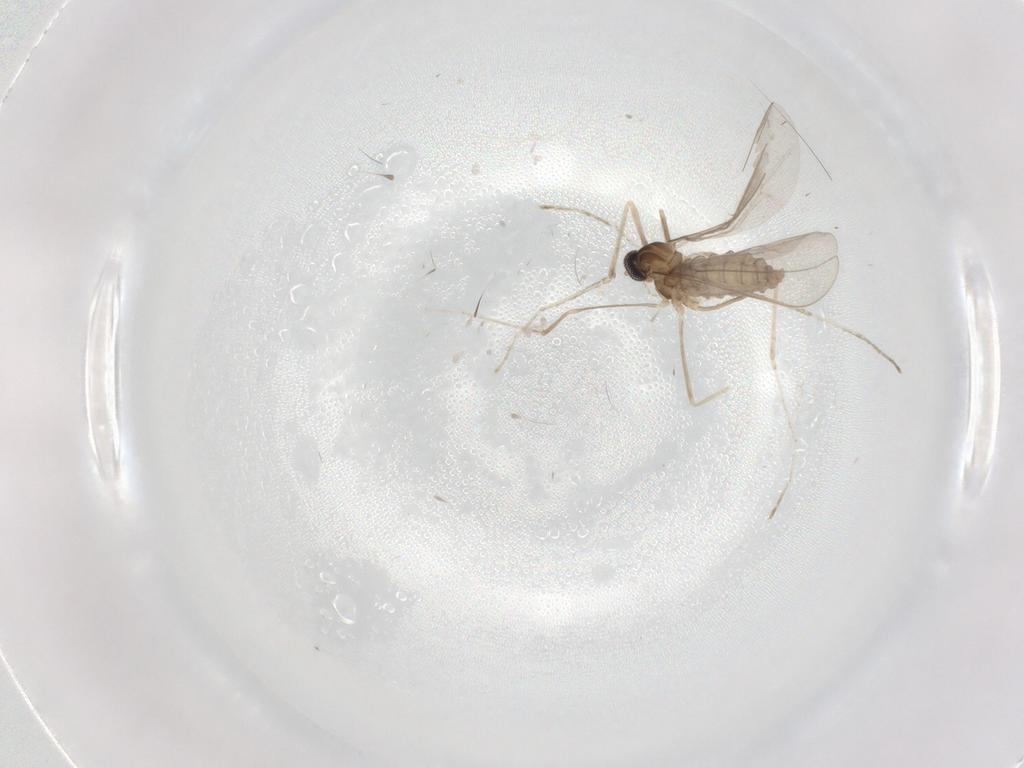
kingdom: Animalia
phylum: Arthropoda
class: Insecta
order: Diptera
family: Cecidomyiidae
